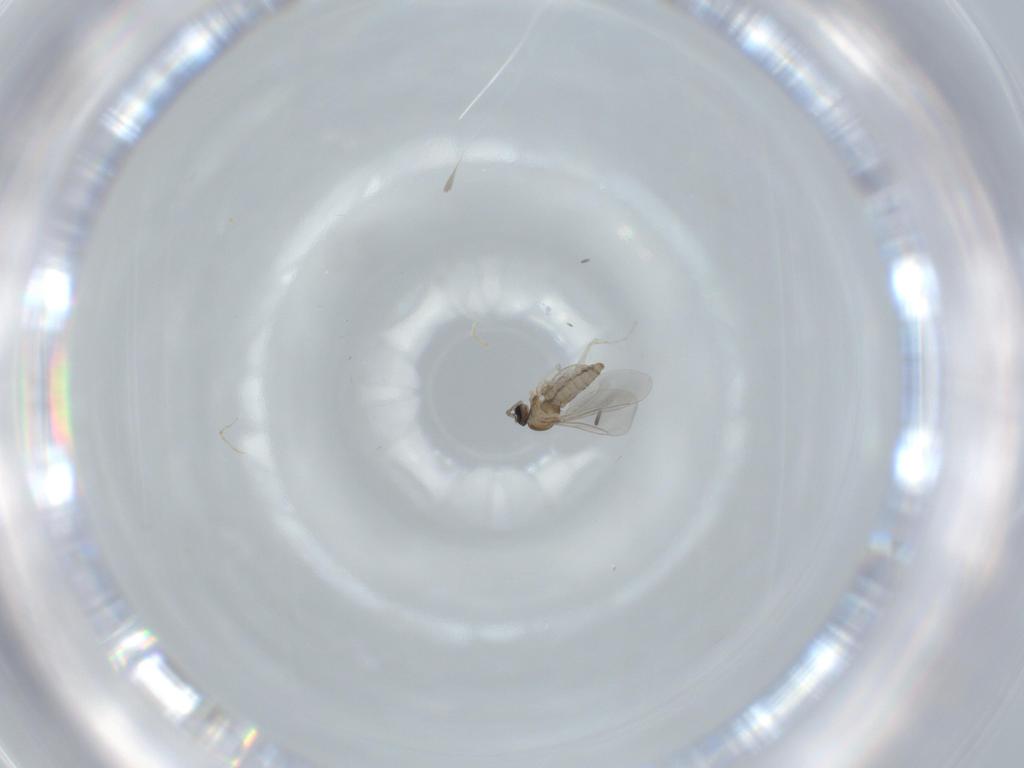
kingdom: Animalia
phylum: Arthropoda
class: Insecta
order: Diptera
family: Cecidomyiidae
